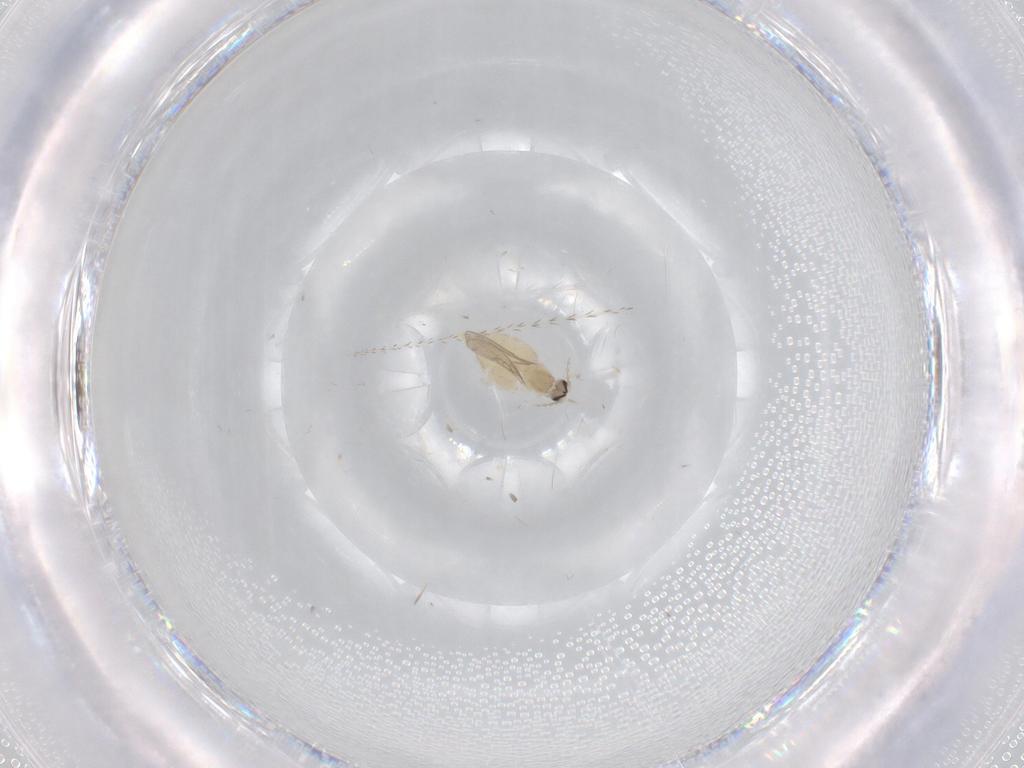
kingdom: Animalia
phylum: Arthropoda
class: Insecta
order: Diptera
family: Cecidomyiidae
